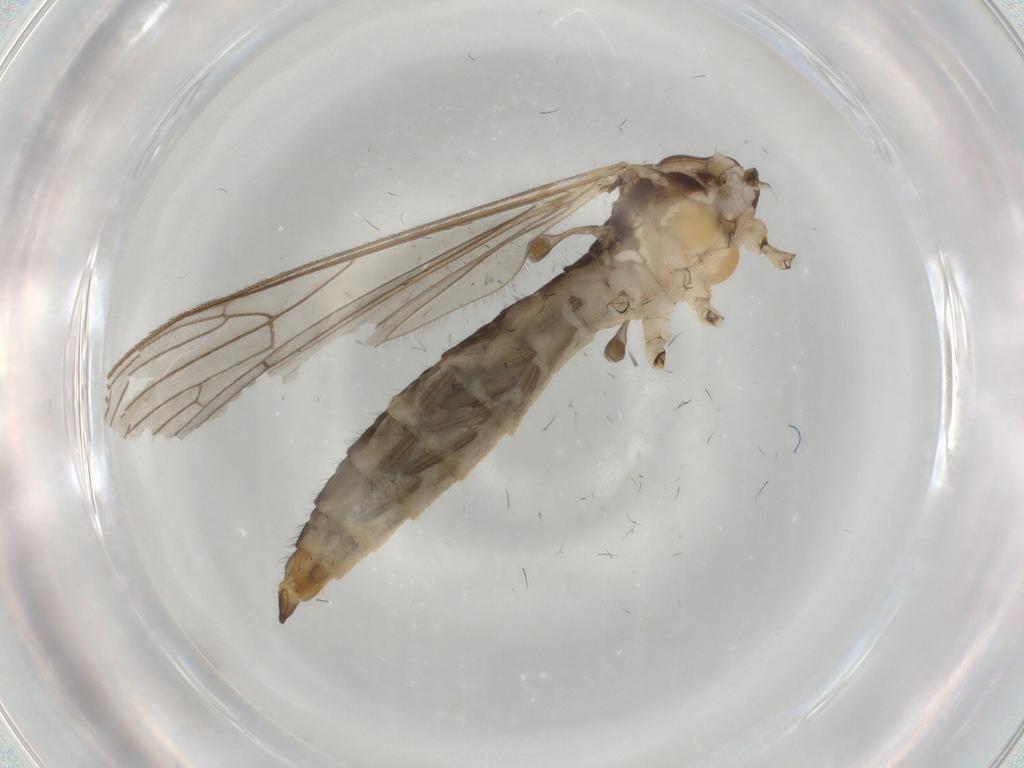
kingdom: Animalia
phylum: Arthropoda
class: Insecta
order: Diptera
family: Limoniidae
